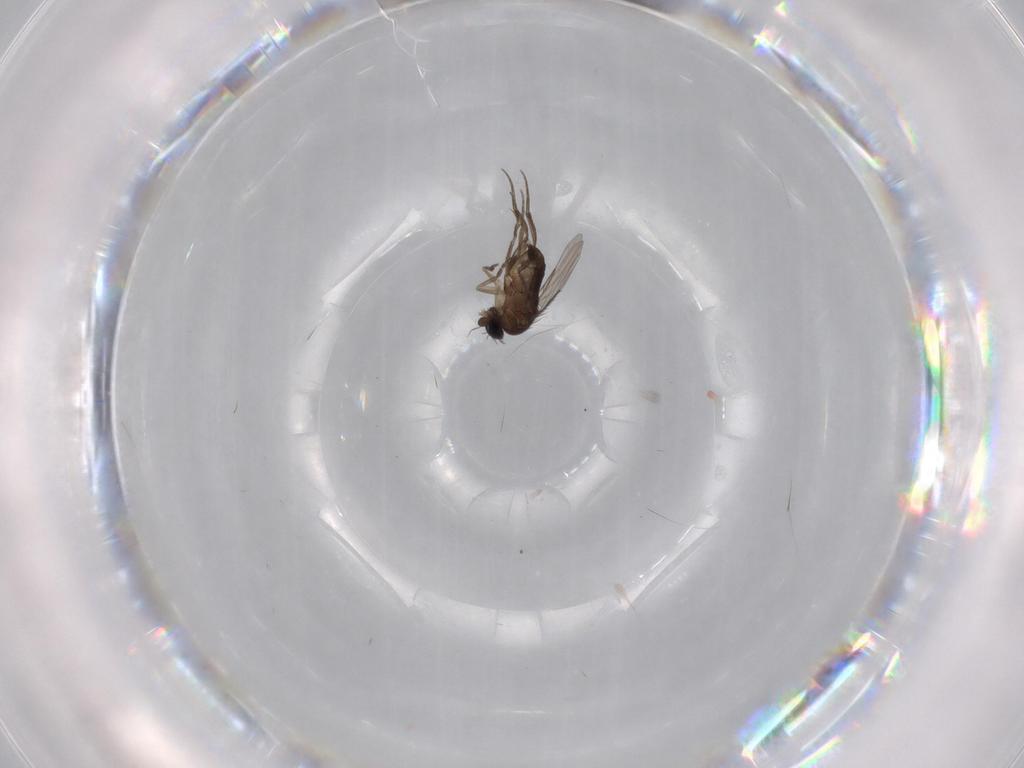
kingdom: Animalia
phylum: Arthropoda
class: Insecta
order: Diptera
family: Phoridae
